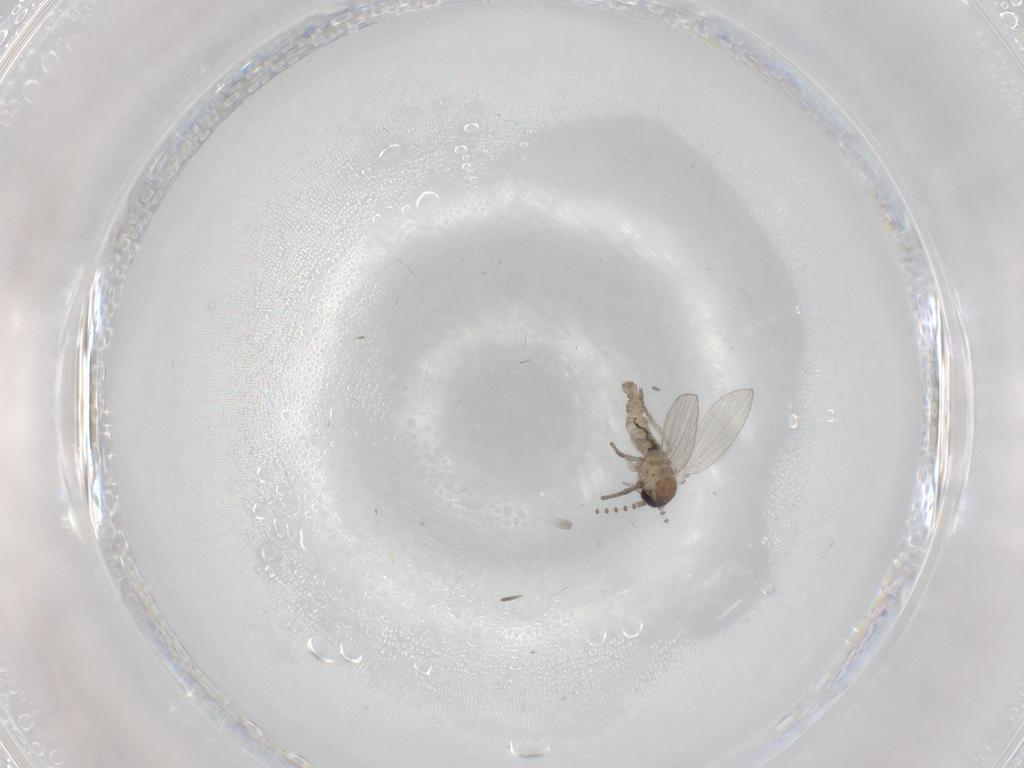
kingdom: Animalia
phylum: Arthropoda
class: Insecta
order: Diptera
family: Psychodidae
